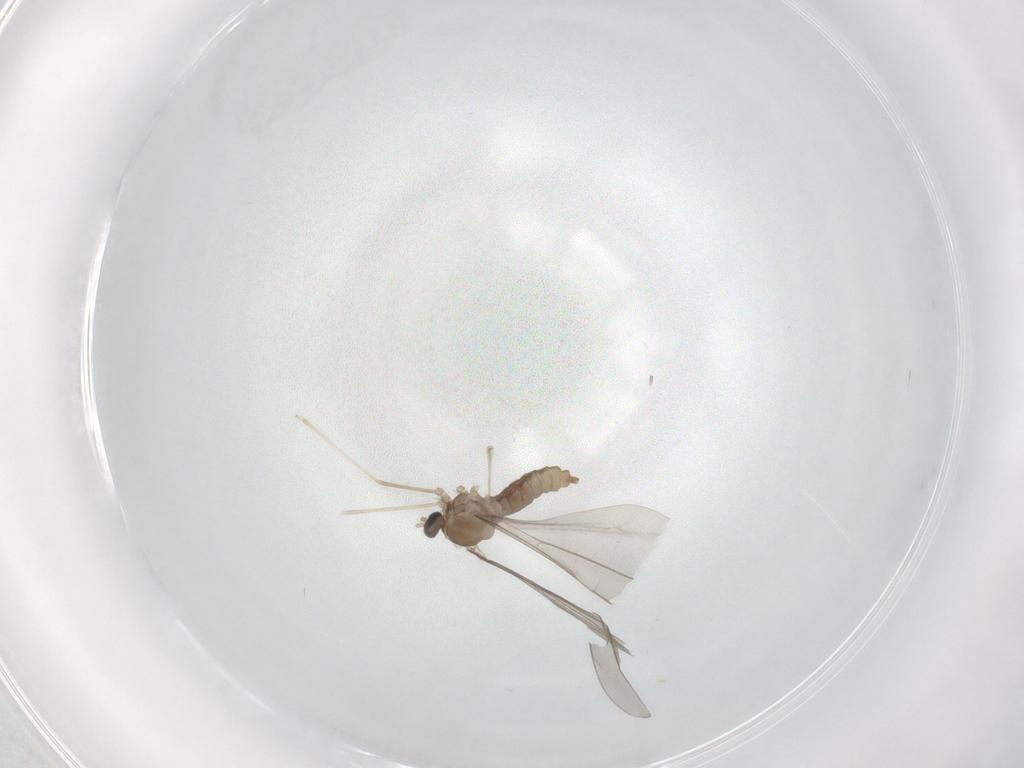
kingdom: Animalia
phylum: Arthropoda
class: Insecta
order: Diptera
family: Cecidomyiidae
